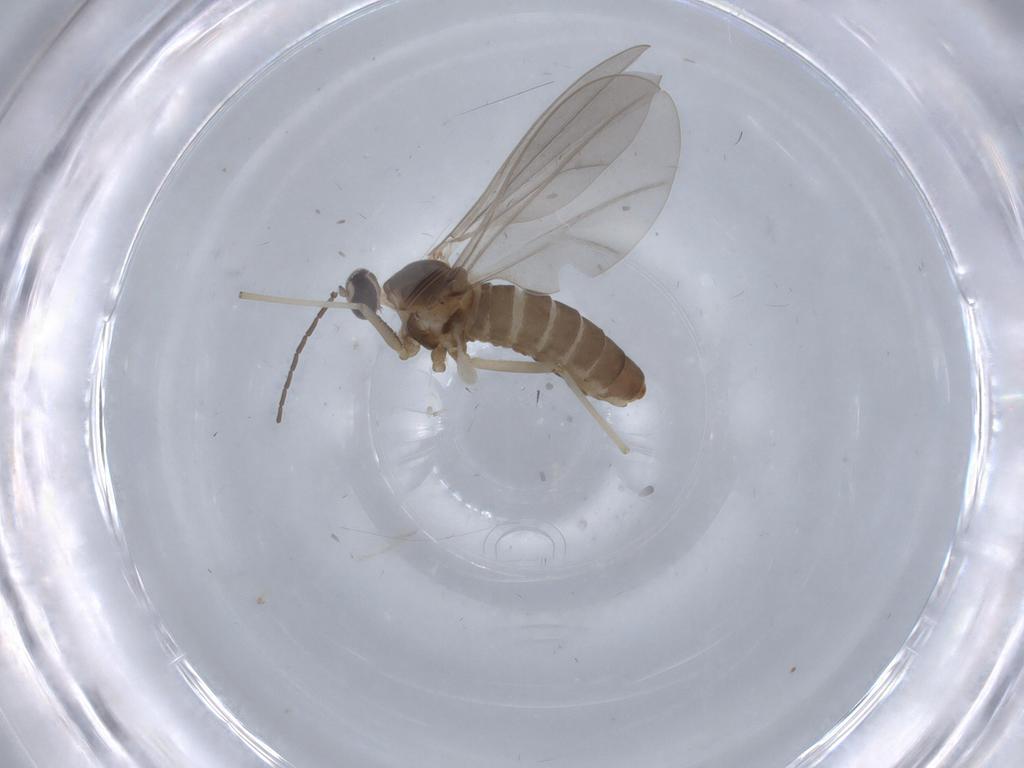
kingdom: Animalia
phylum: Arthropoda
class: Insecta
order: Diptera
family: Cecidomyiidae
